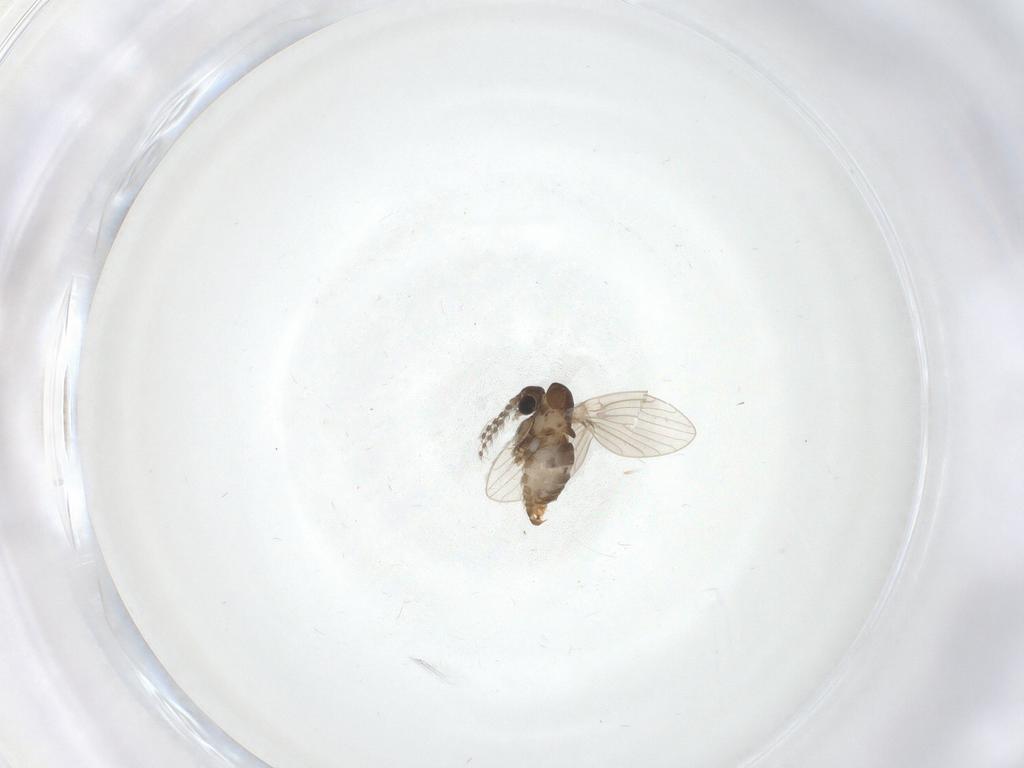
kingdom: Animalia
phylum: Arthropoda
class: Insecta
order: Diptera
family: Psychodidae
